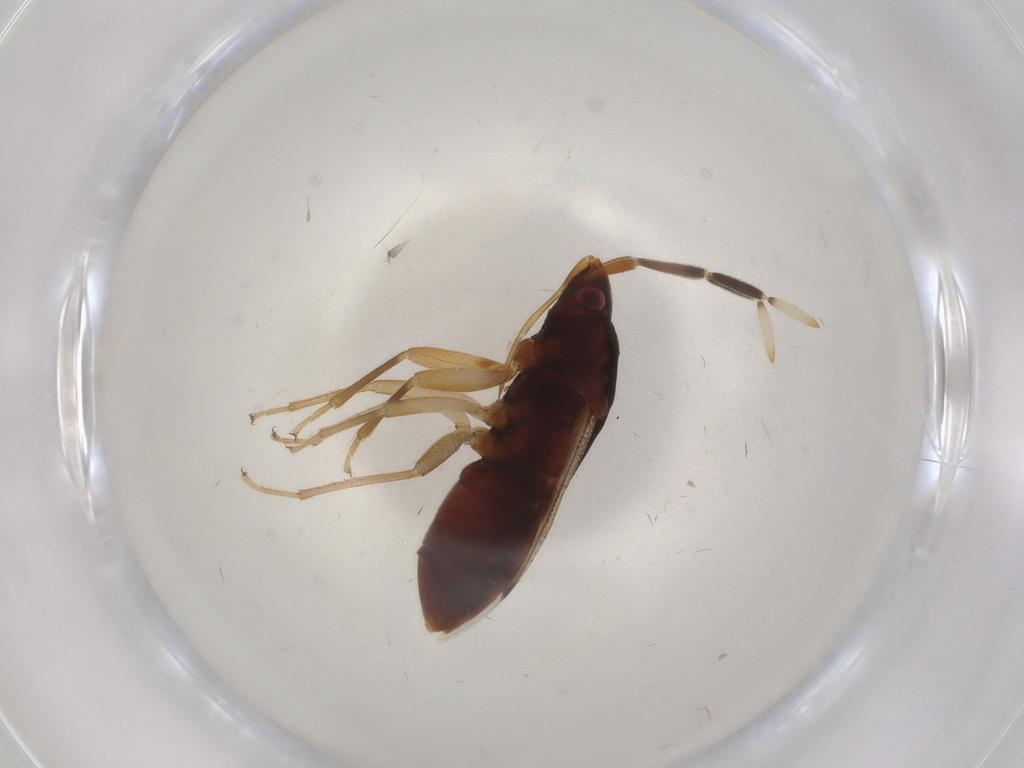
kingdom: Animalia
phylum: Arthropoda
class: Insecta
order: Hemiptera
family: Rhyparochromidae
